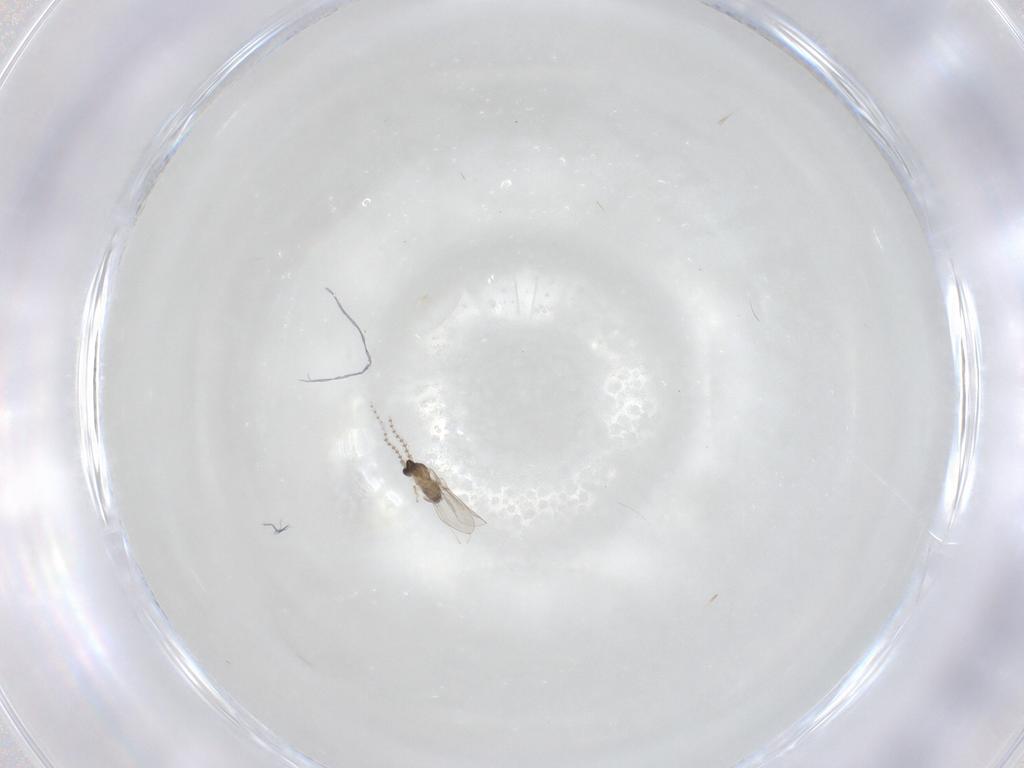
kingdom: Animalia
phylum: Arthropoda
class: Insecta
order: Diptera
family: Cecidomyiidae
